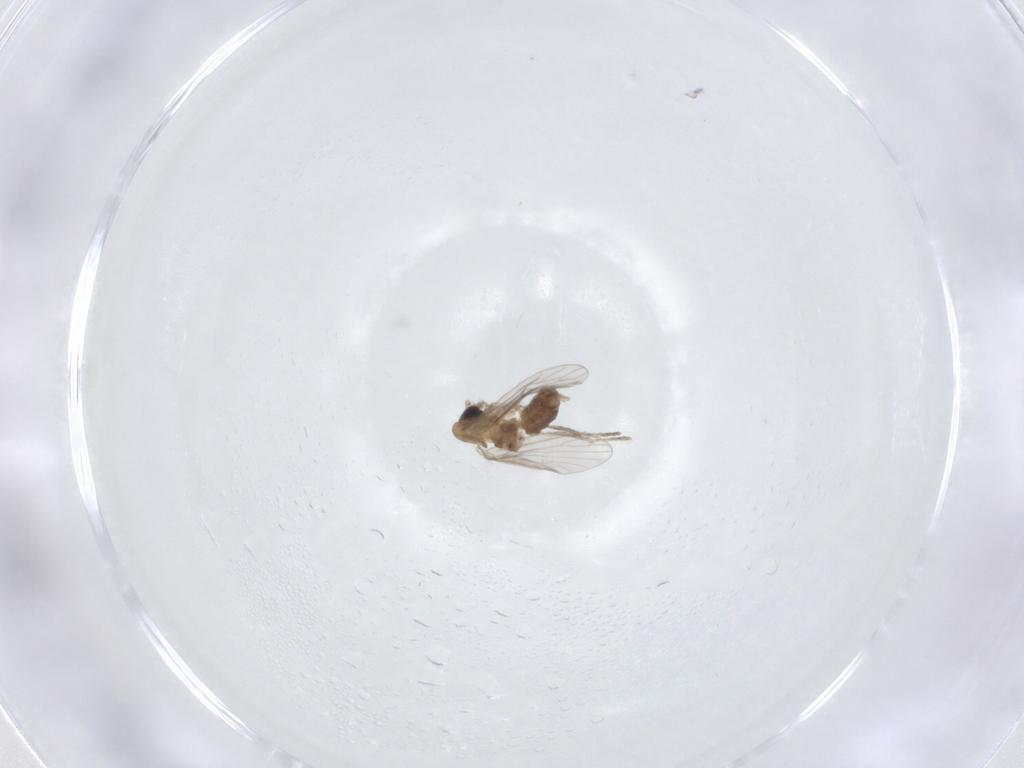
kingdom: Animalia
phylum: Arthropoda
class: Insecta
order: Diptera
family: Psychodidae
